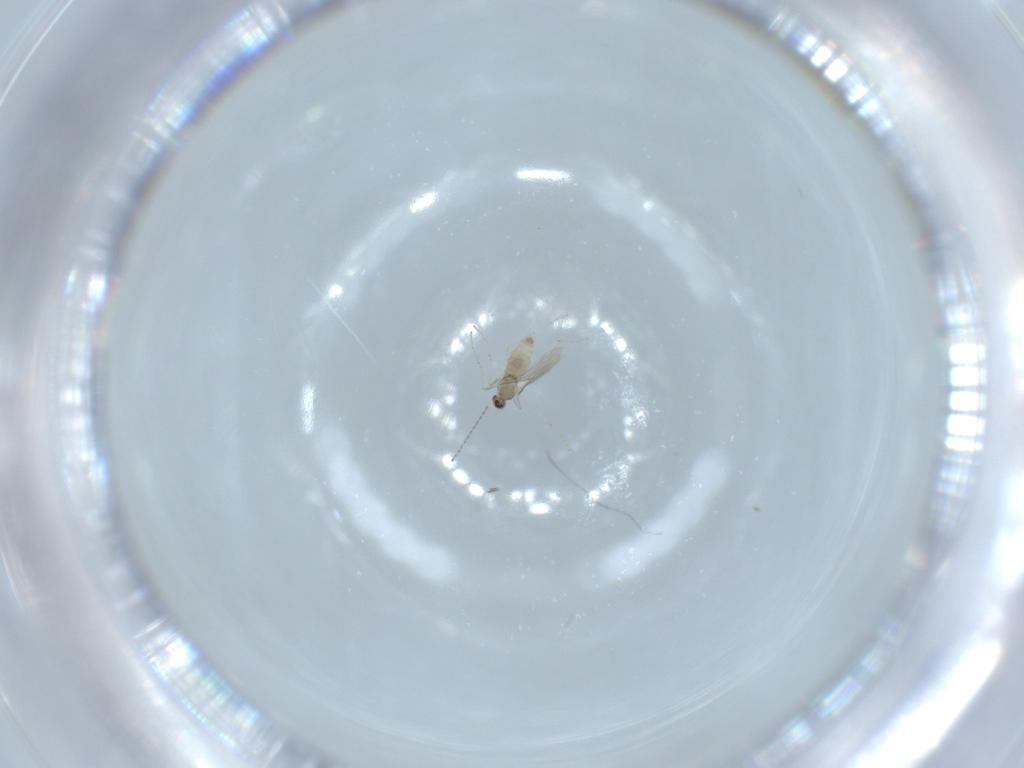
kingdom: Animalia
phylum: Arthropoda
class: Insecta
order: Diptera
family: Cecidomyiidae
